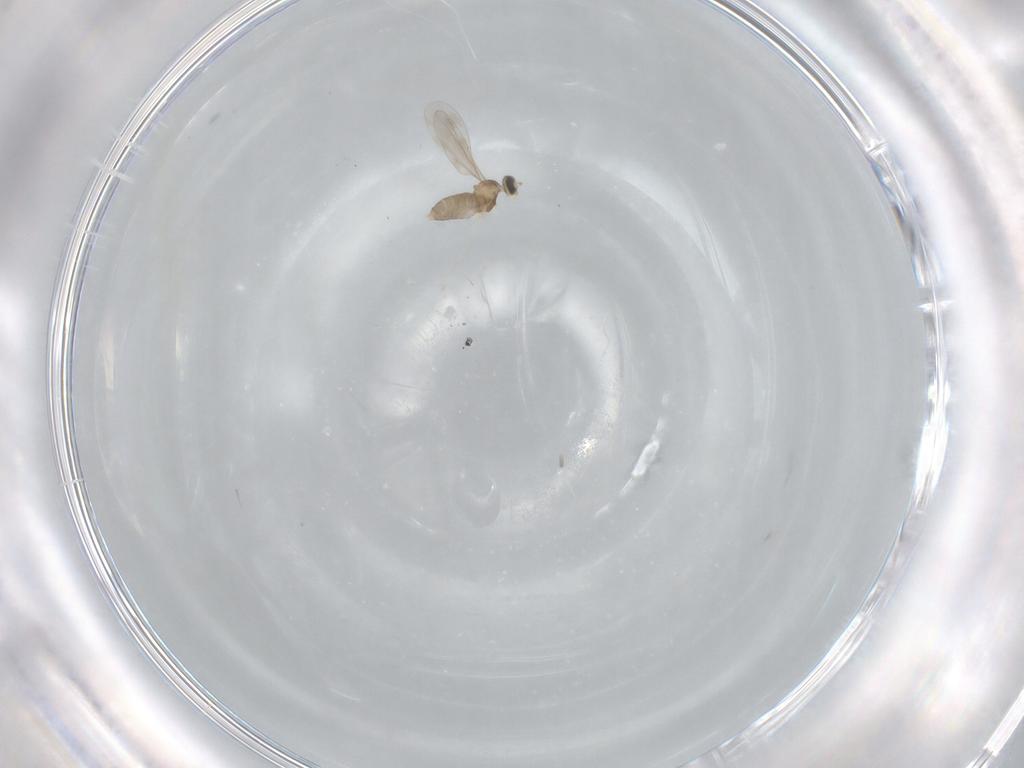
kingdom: Animalia
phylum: Arthropoda
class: Insecta
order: Diptera
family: Cecidomyiidae
